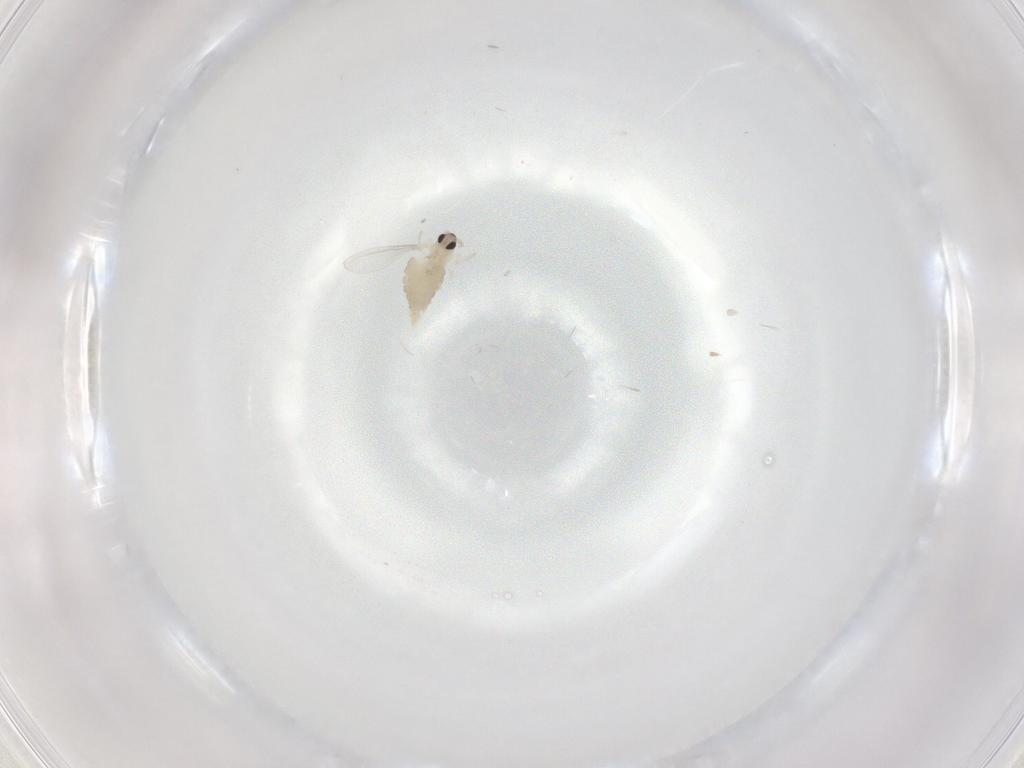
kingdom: Animalia
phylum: Arthropoda
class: Insecta
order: Diptera
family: Cecidomyiidae
